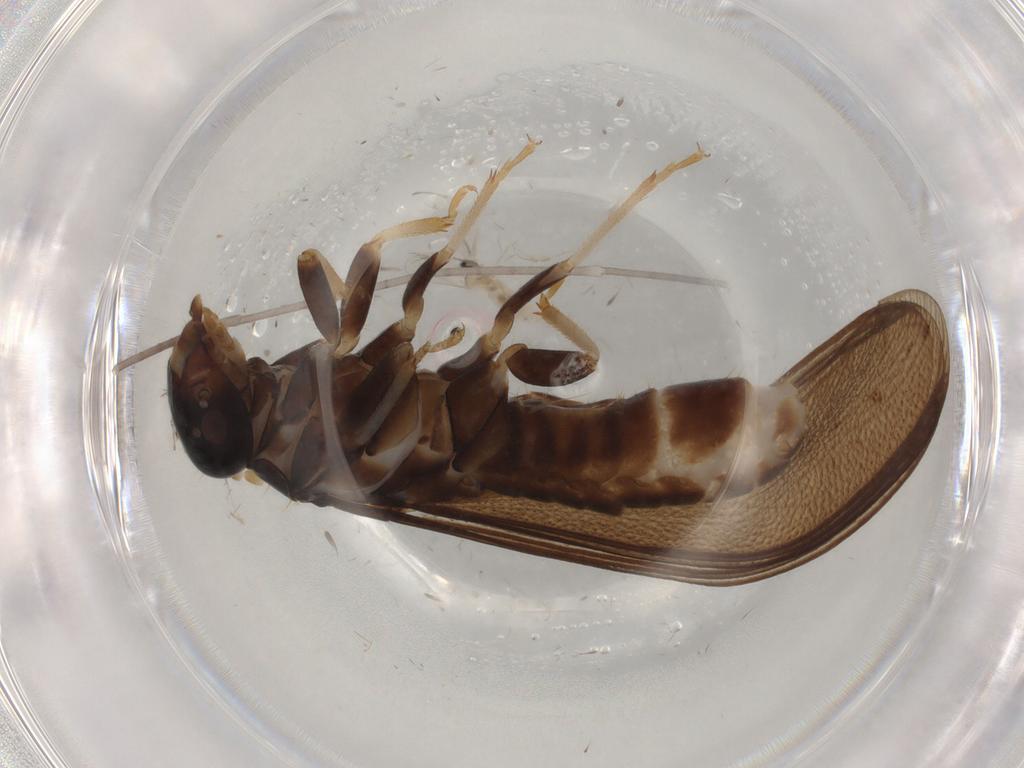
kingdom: Animalia
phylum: Arthropoda
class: Insecta
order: Blattodea
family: Kalotermitidae
